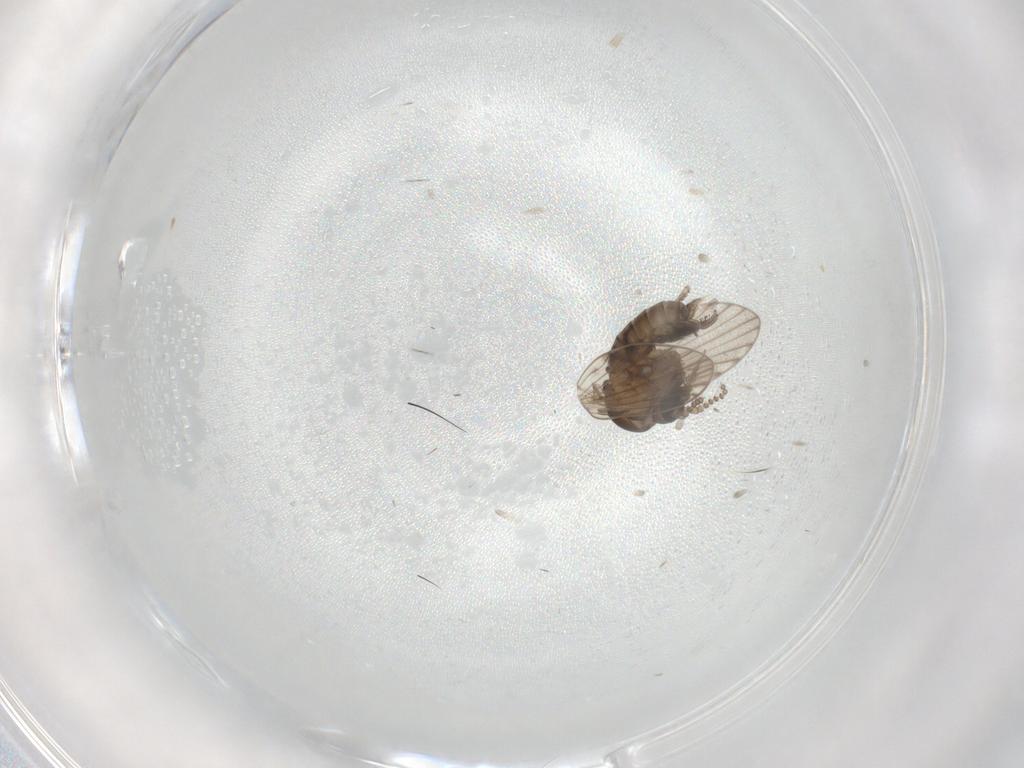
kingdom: Animalia
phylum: Arthropoda
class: Insecta
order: Diptera
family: Psychodidae
